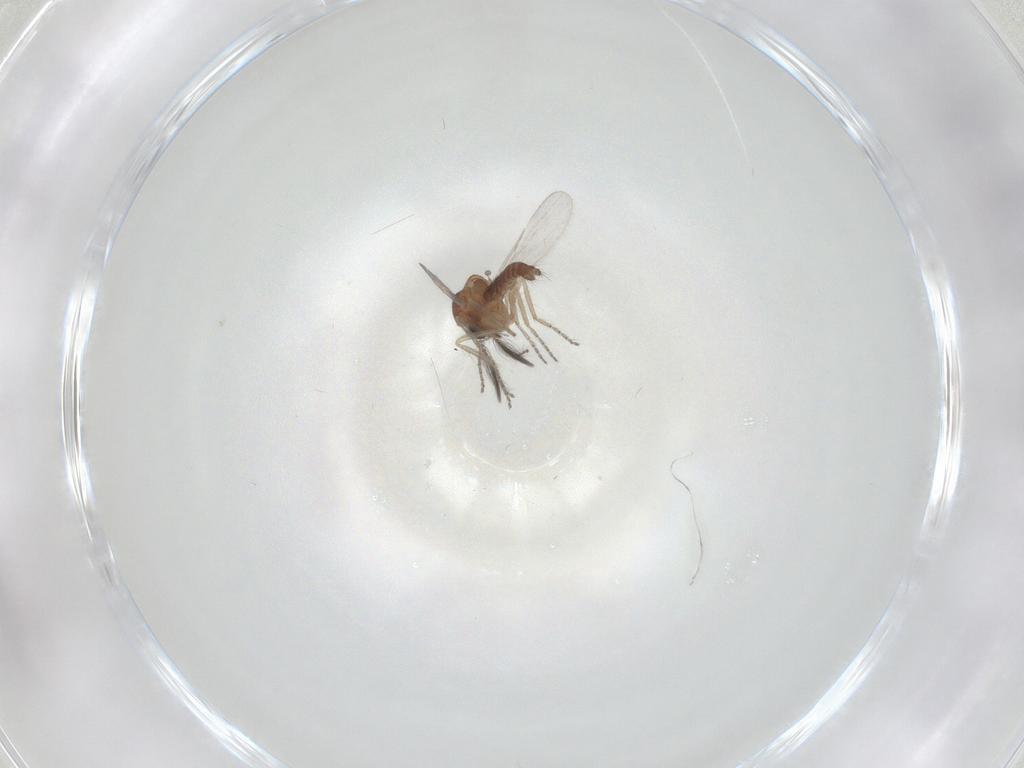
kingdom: Animalia
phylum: Arthropoda
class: Insecta
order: Diptera
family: Ceratopogonidae
